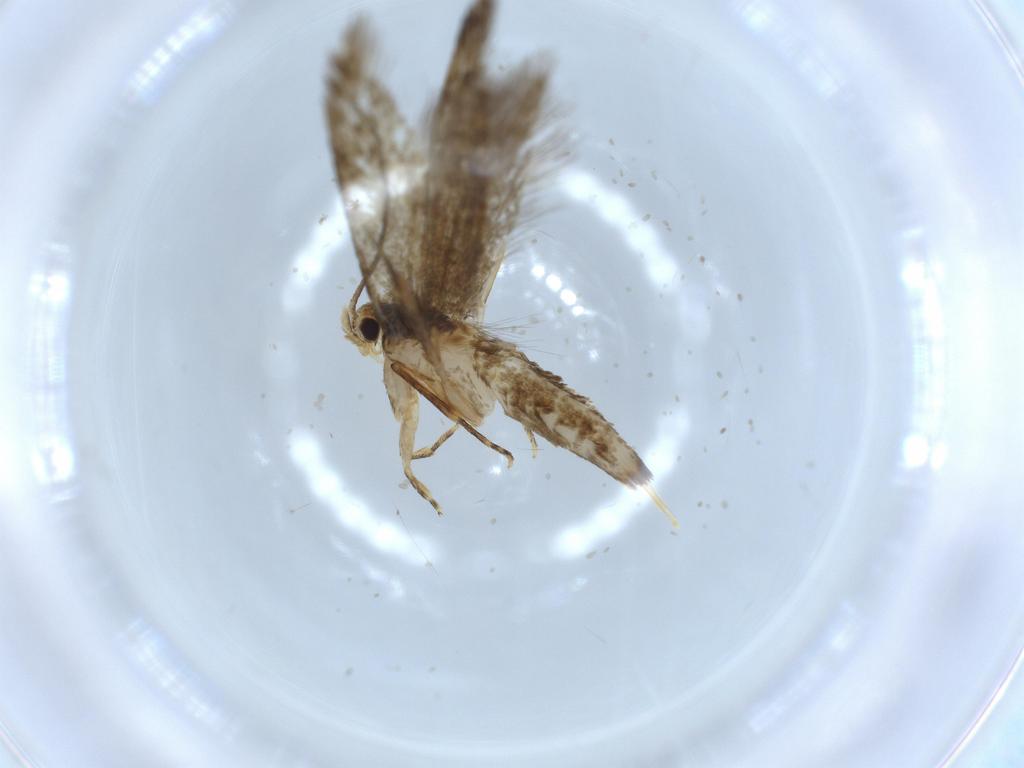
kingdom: Animalia
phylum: Arthropoda
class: Insecta
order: Lepidoptera
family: Tineidae
